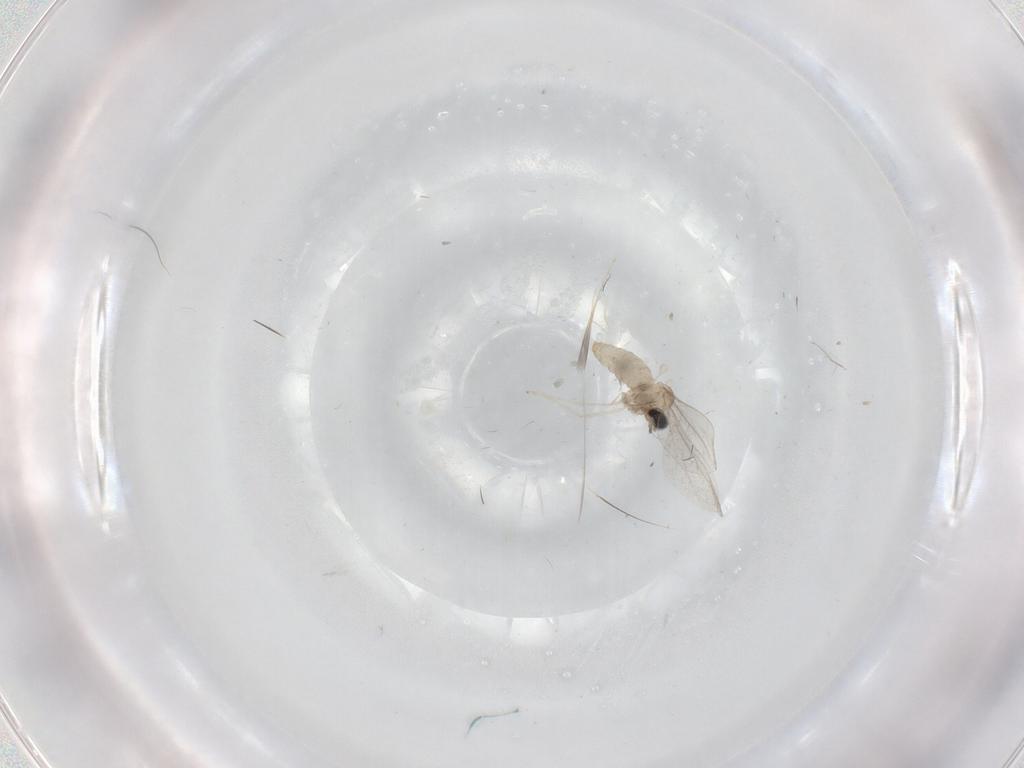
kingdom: Animalia
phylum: Arthropoda
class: Insecta
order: Diptera
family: Cecidomyiidae
